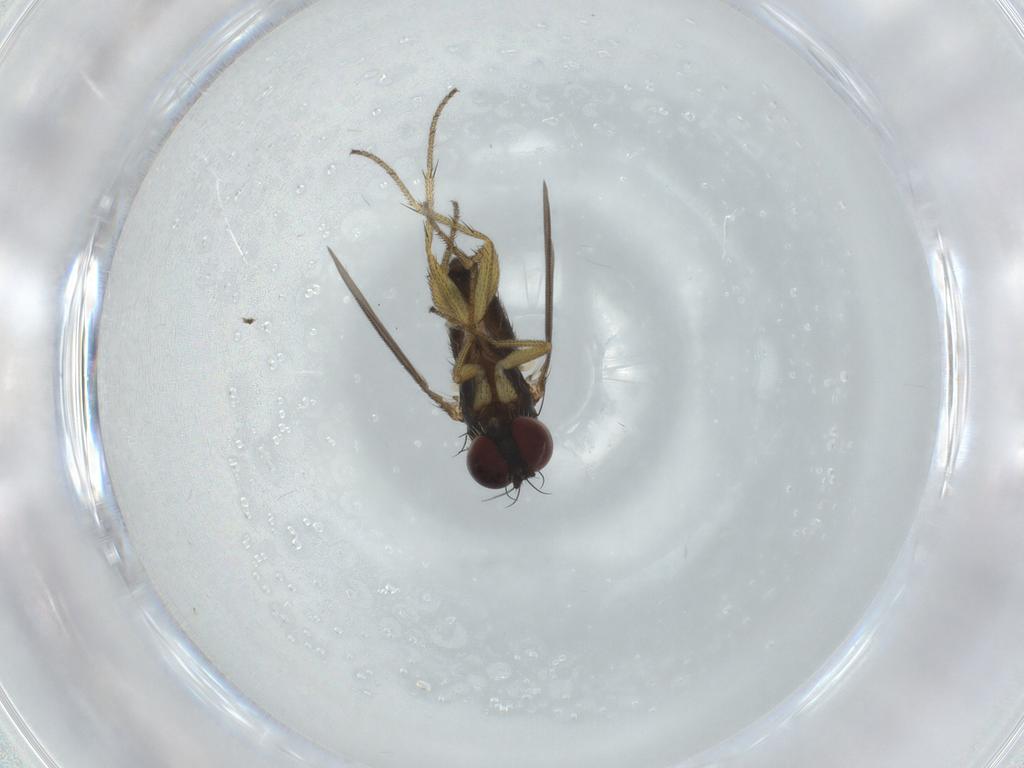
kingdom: Animalia
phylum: Arthropoda
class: Insecta
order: Diptera
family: Dolichopodidae
